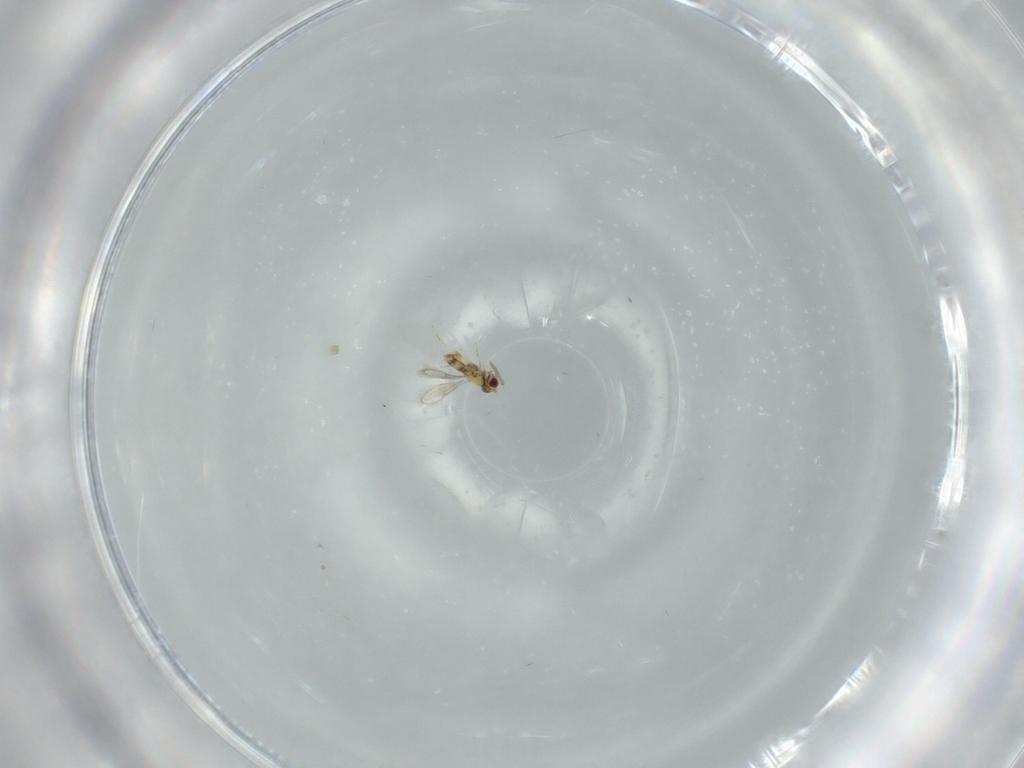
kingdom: Animalia
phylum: Arthropoda
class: Insecta
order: Hymenoptera
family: Aphelinidae
